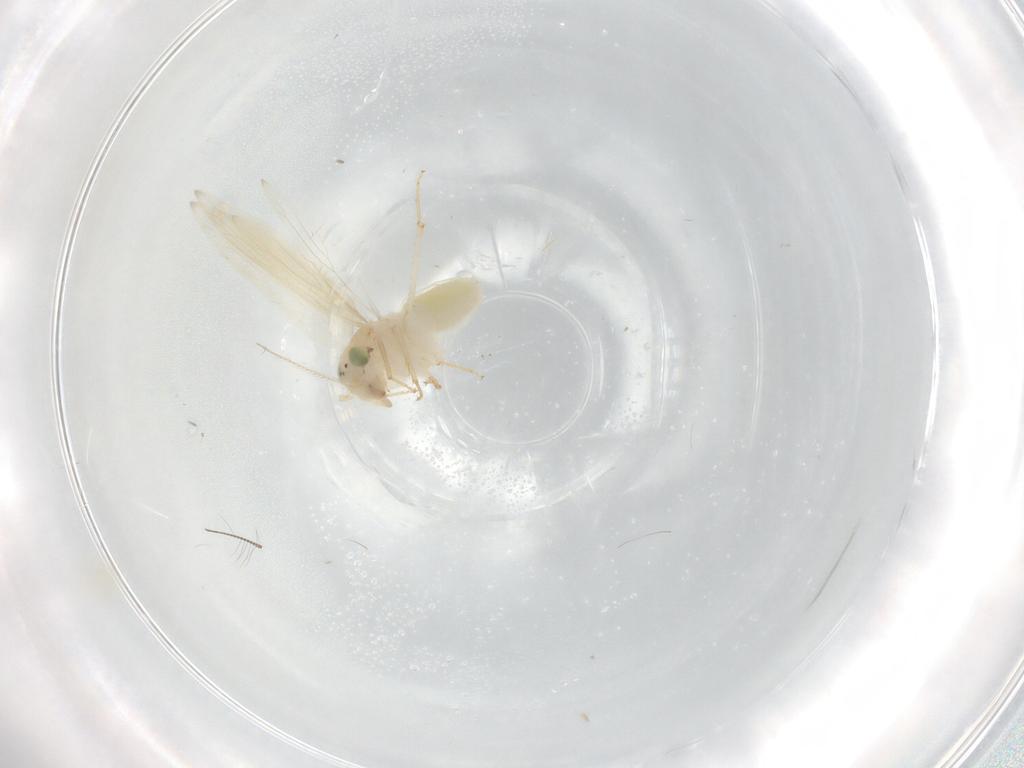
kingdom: Animalia
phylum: Arthropoda
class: Insecta
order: Psocodea
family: Lepidopsocidae
